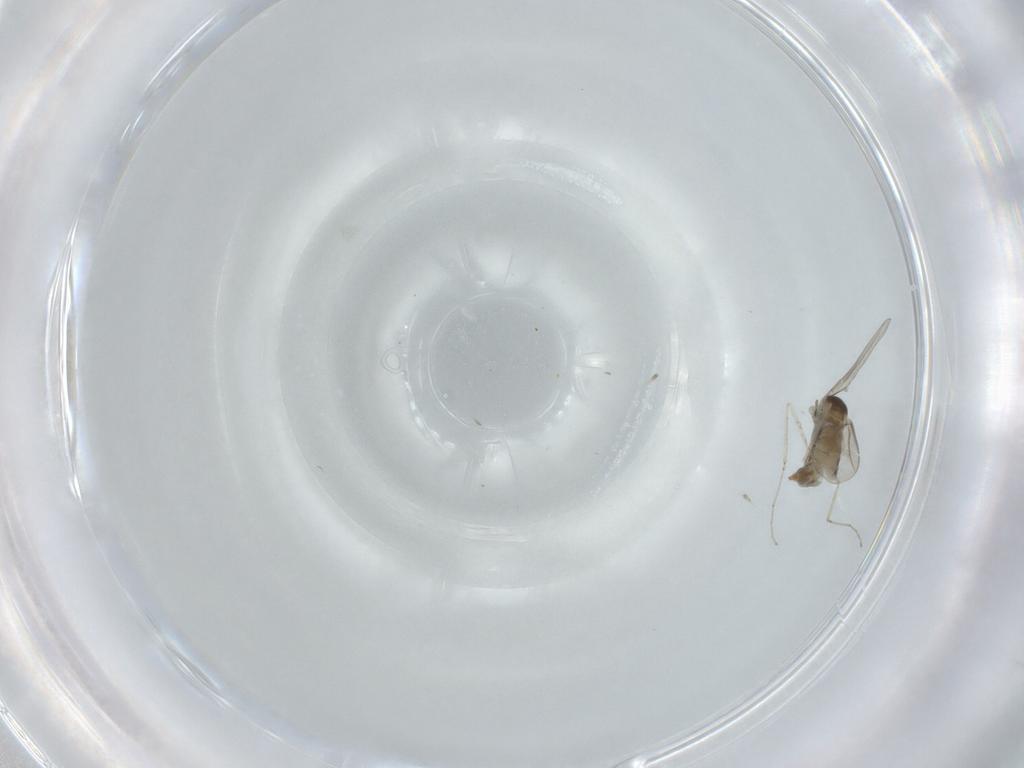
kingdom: Animalia
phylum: Arthropoda
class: Insecta
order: Diptera
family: Cecidomyiidae
